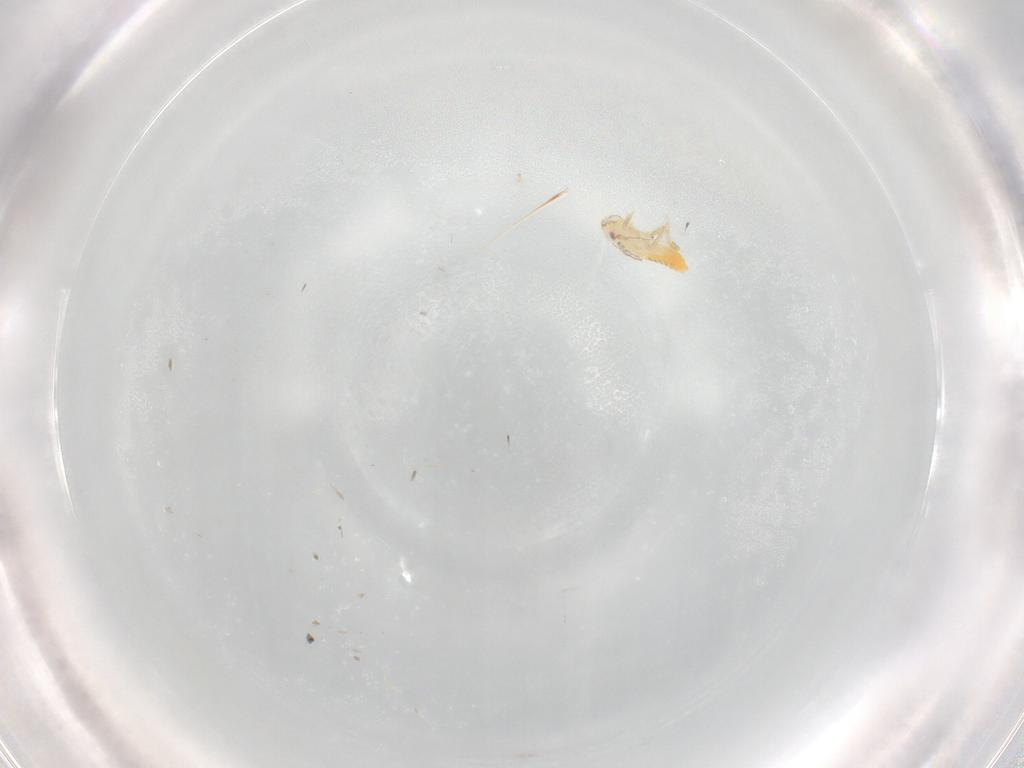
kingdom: Animalia
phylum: Arthropoda
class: Insecta
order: Hemiptera
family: Delphacidae
